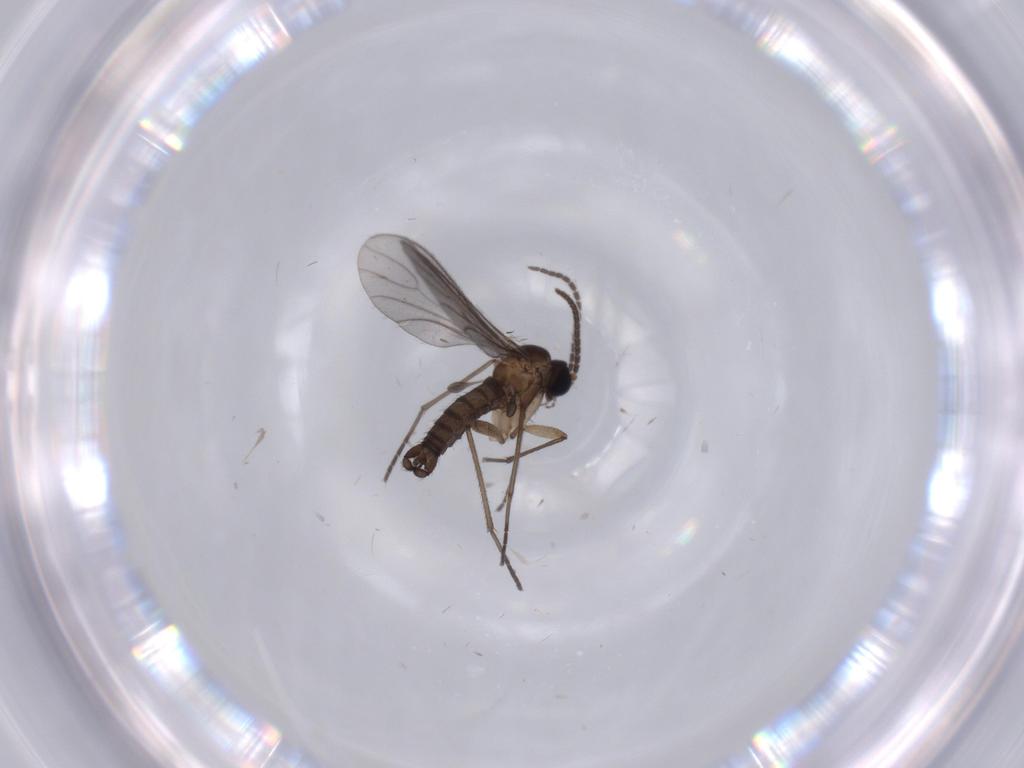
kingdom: Animalia
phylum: Arthropoda
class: Insecta
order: Diptera
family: Sciaridae
